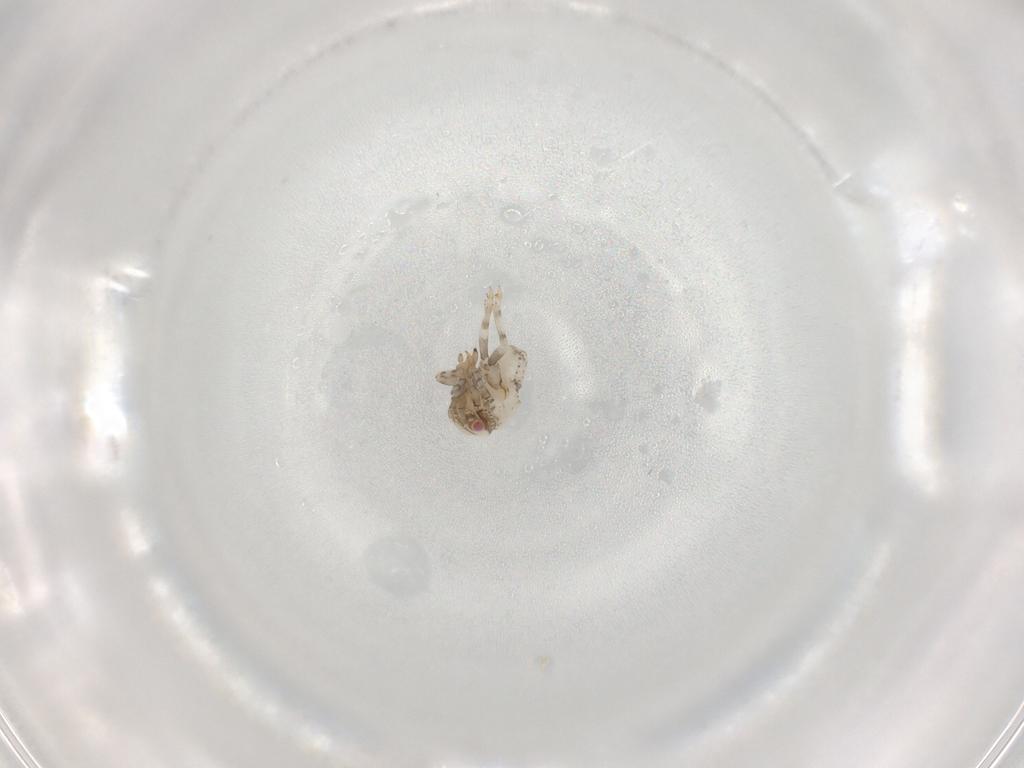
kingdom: Animalia
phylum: Arthropoda
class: Insecta
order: Hemiptera
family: Acanaloniidae
